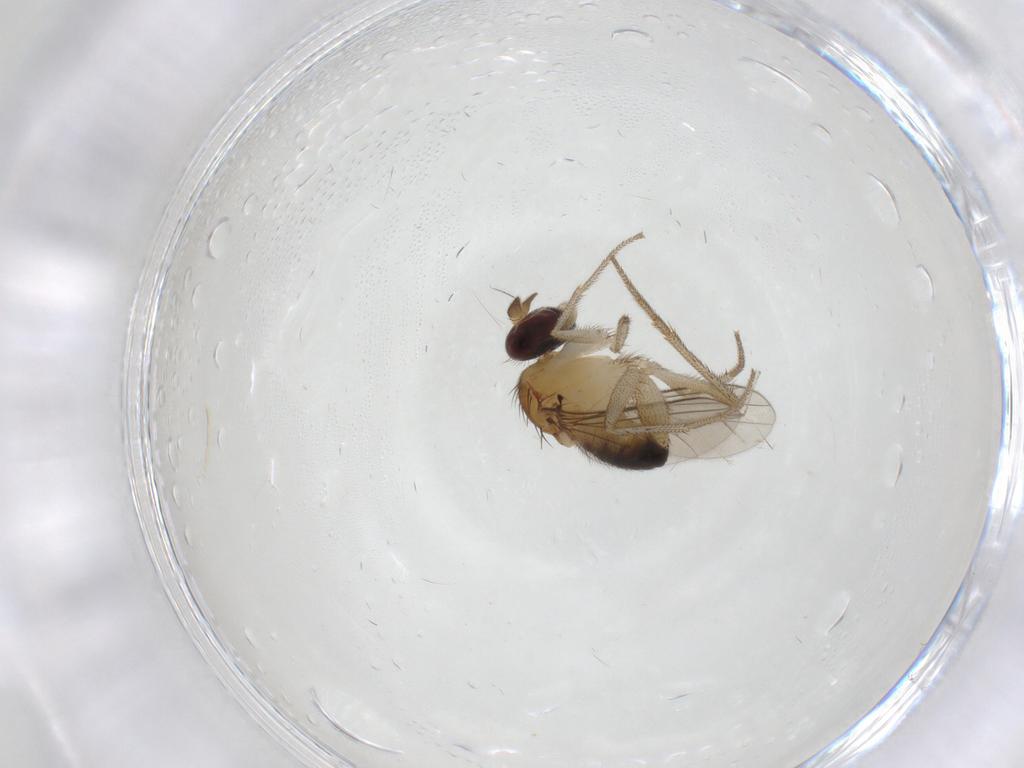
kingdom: Animalia
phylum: Arthropoda
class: Insecta
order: Diptera
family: Dolichopodidae
